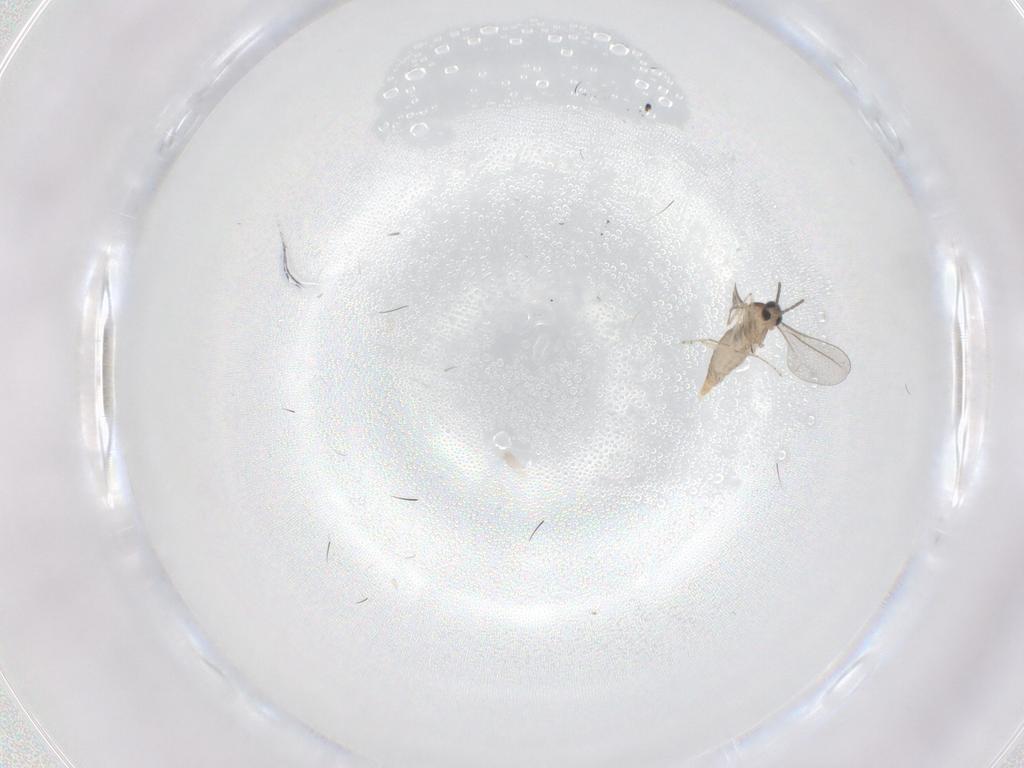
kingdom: Animalia
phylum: Arthropoda
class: Insecta
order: Diptera
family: Cecidomyiidae
